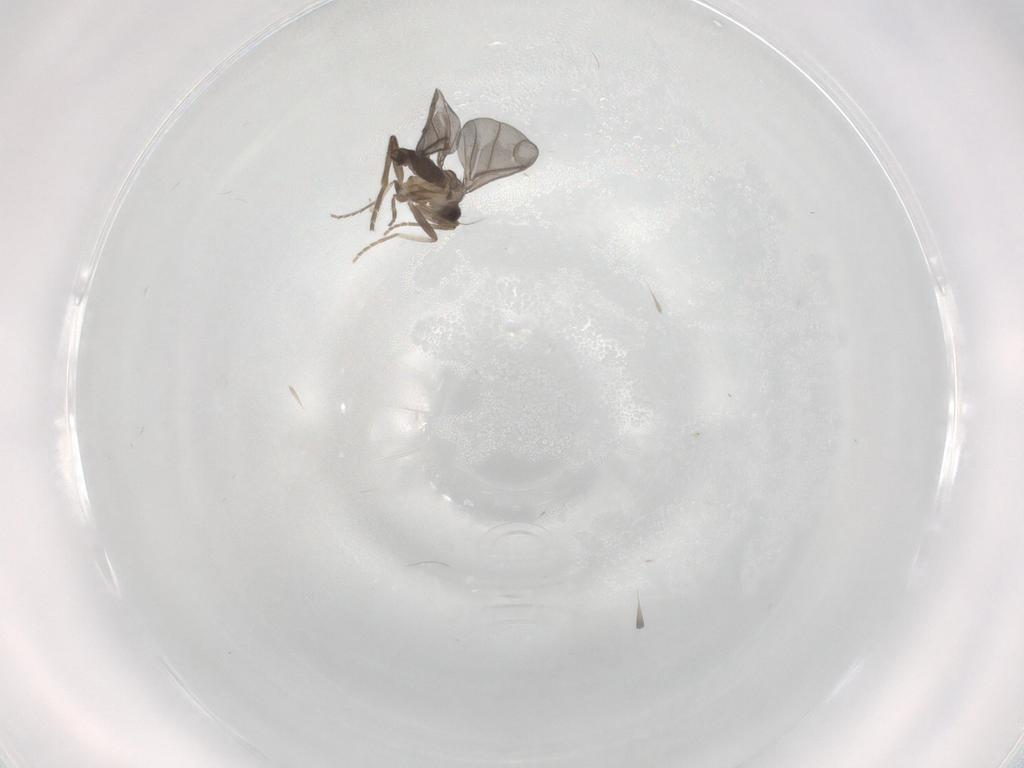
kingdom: Animalia
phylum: Arthropoda
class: Insecta
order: Diptera
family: Phoridae
